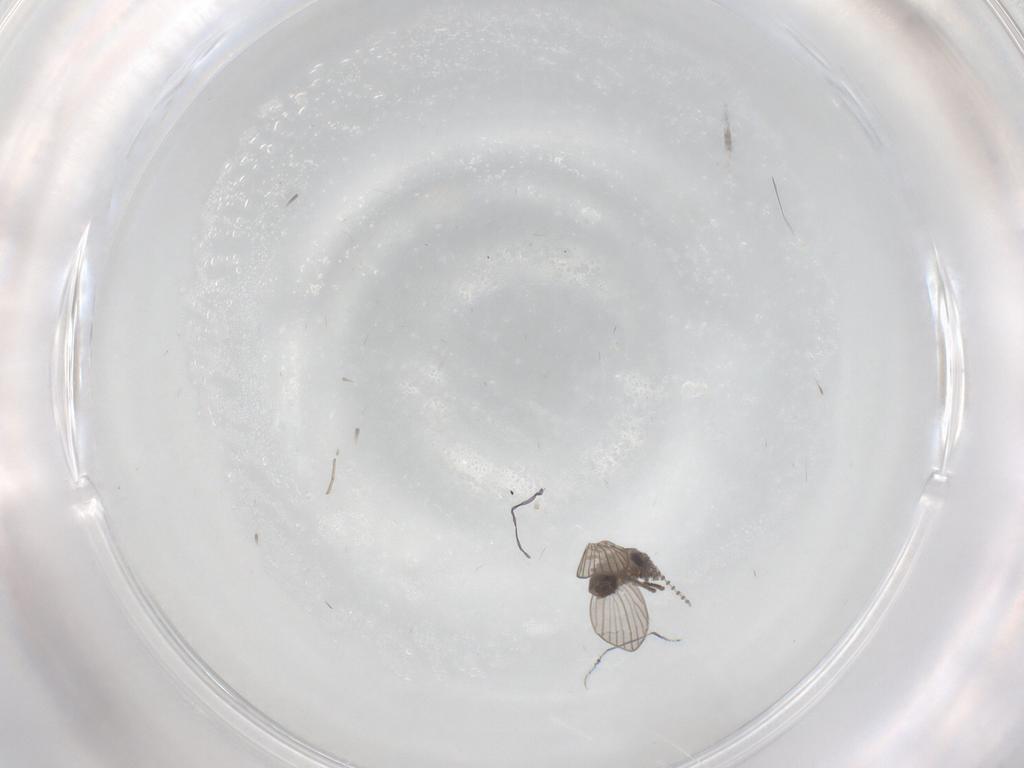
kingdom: Animalia
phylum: Arthropoda
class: Insecta
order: Diptera
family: Psychodidae
